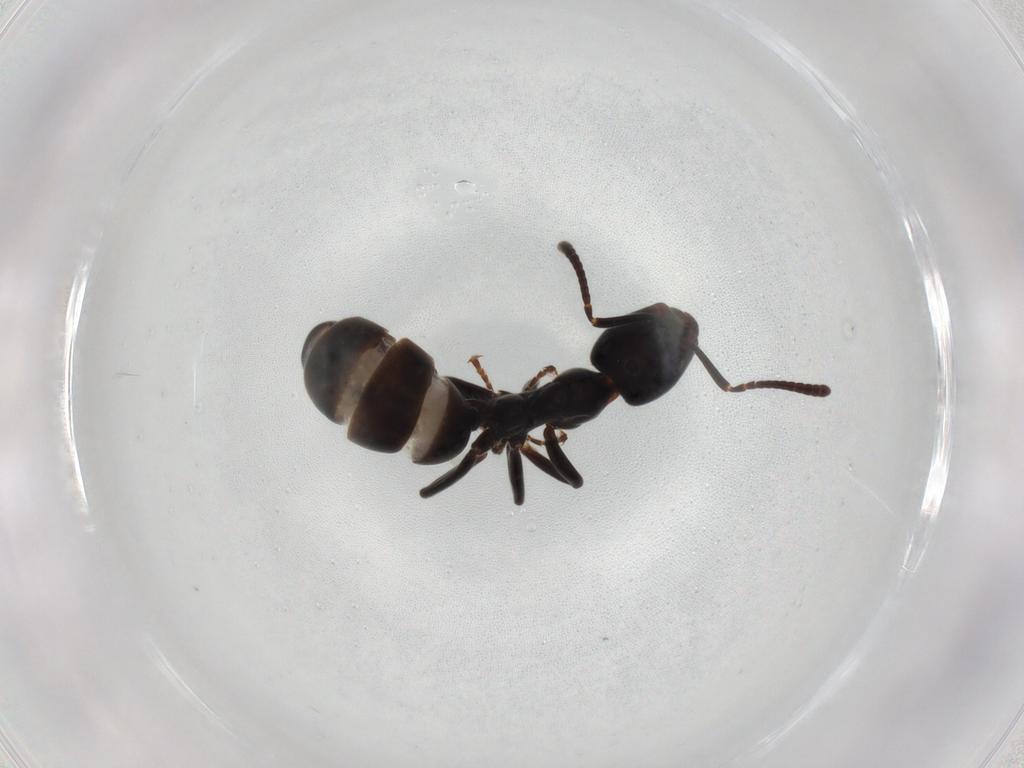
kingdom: Animalia
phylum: Arthropoda
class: Insecta
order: Hymenoptera
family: Formicidae
